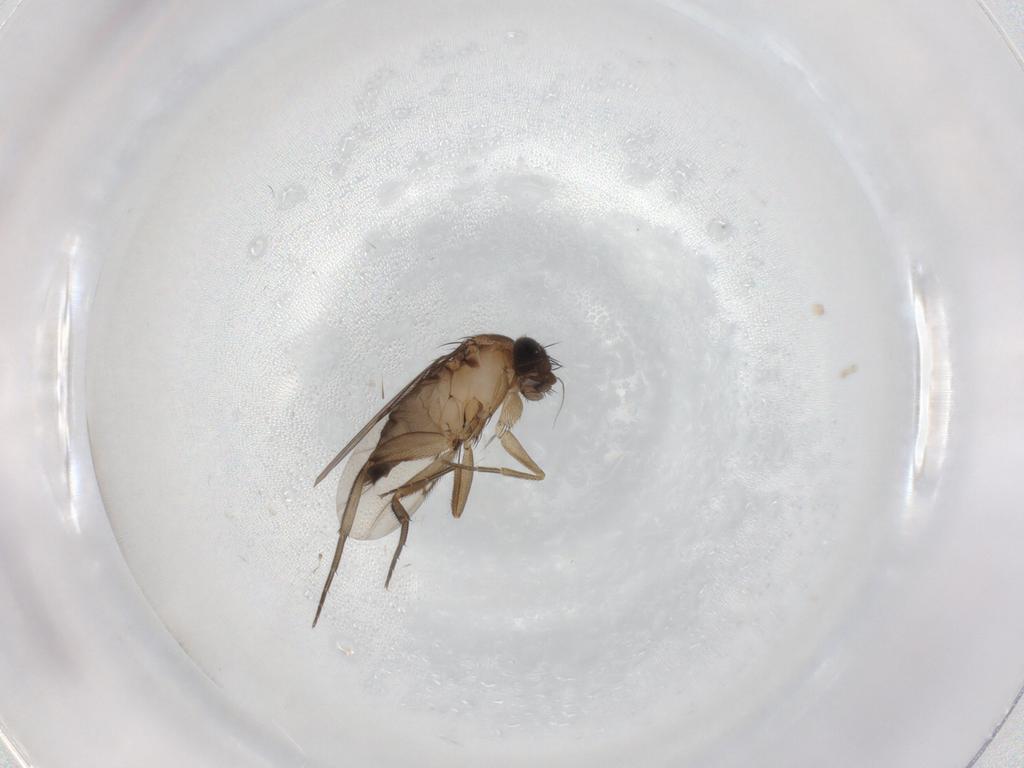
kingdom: Animalia
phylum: Arthropoda
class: Insecta
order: Diptera
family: Phoridae
